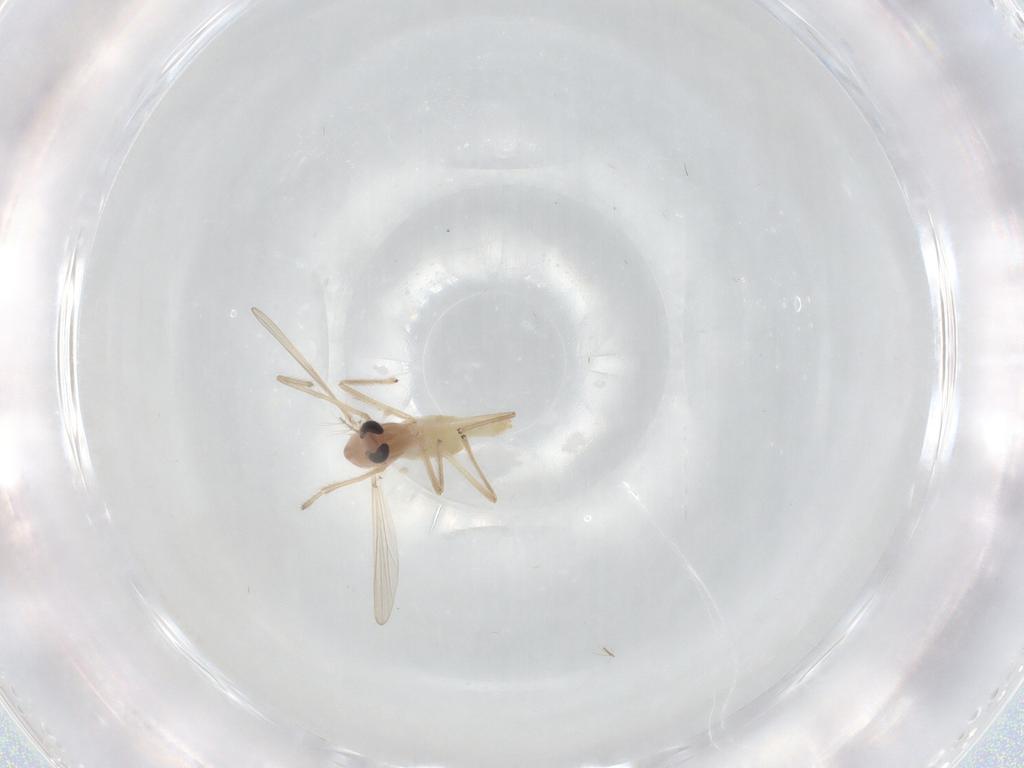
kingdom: Animalia
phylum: Arthropoda
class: Insecta
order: Diptera
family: Chironomidae
